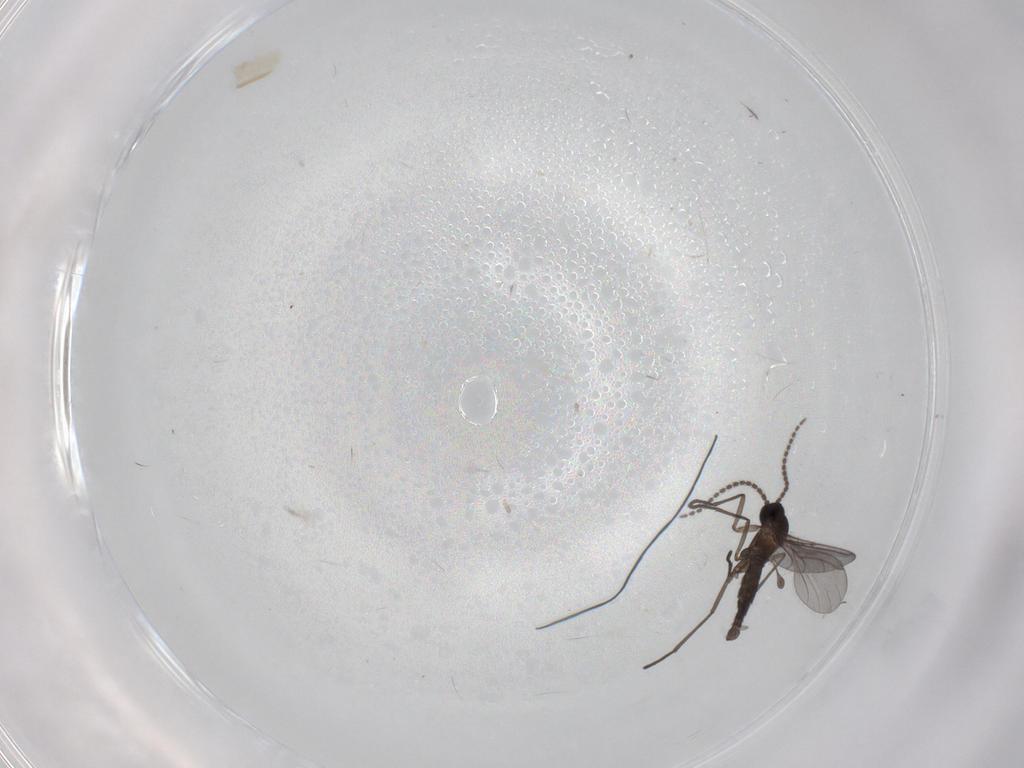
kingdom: Animalia
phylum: Arthropoda
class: Insecta
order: Diptera
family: Sciaridae
